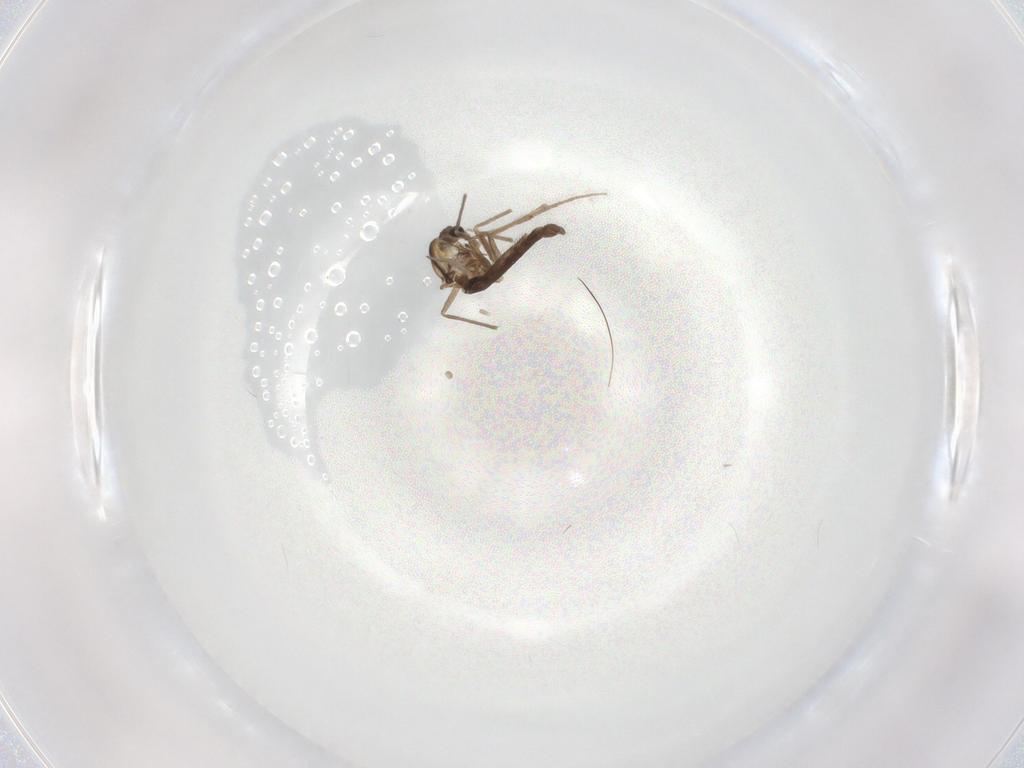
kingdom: Animalia
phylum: Arthropoda
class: Insecta
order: Diptera
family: Chironomidae
